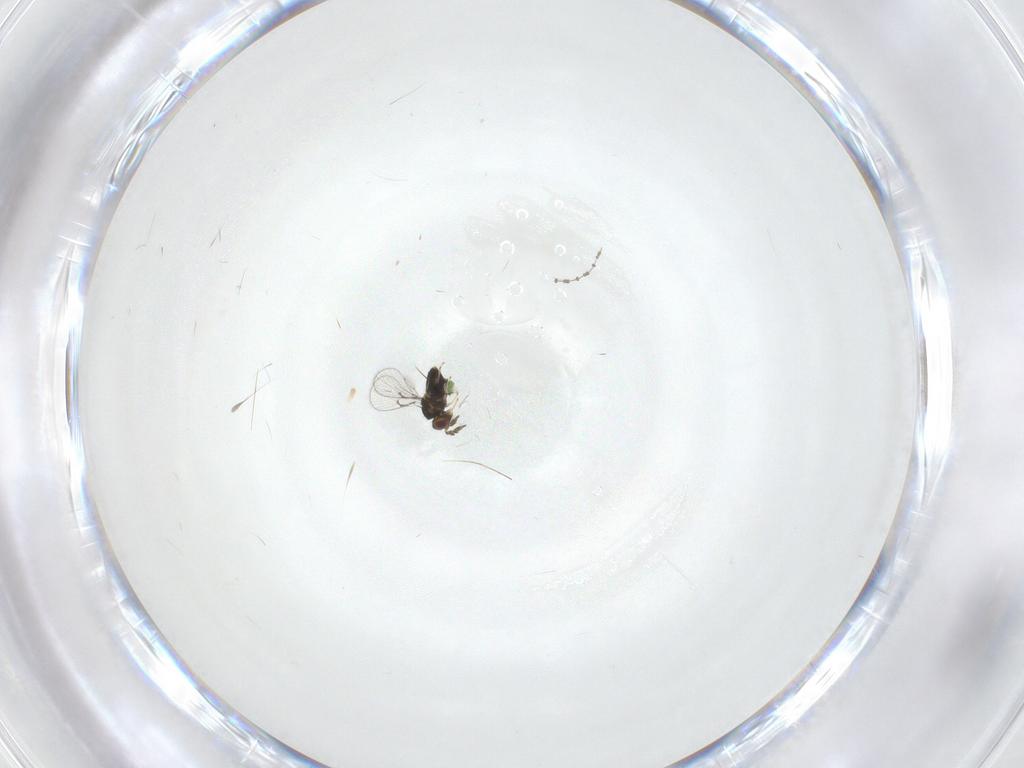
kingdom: Animalia
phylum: Arthropoda
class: Insecta
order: Hymenoptera
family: Trichogrammatidae
